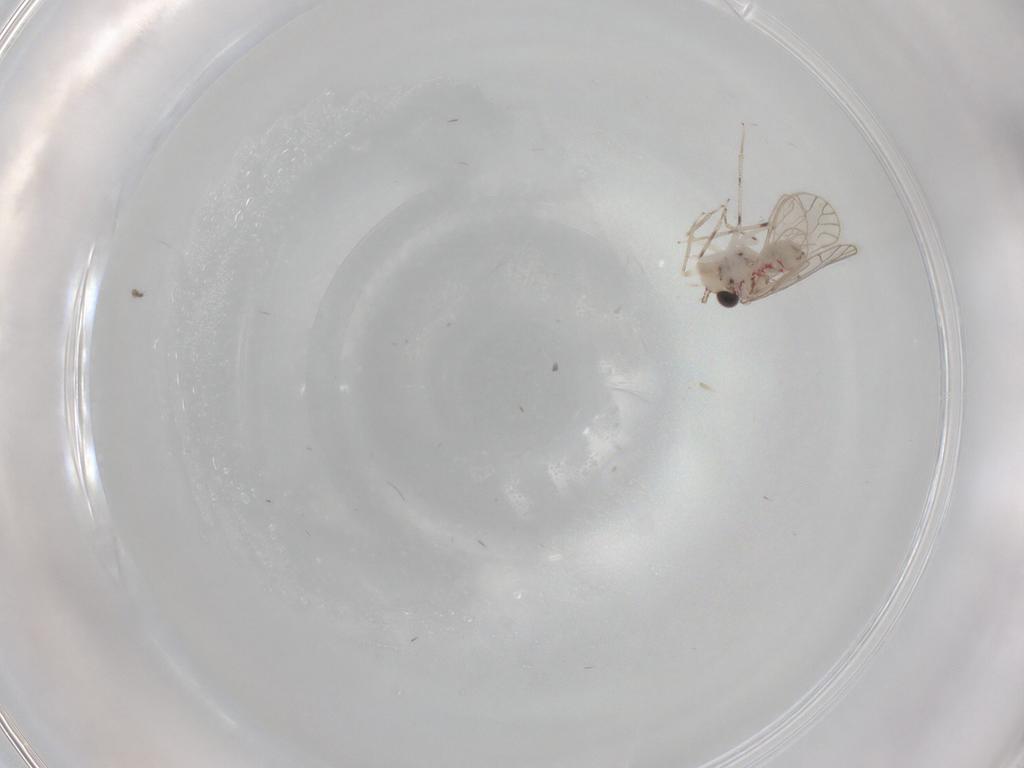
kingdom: Animalia
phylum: Arthropoda
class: Insecta
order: Psocodea
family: Caeciliusidae
